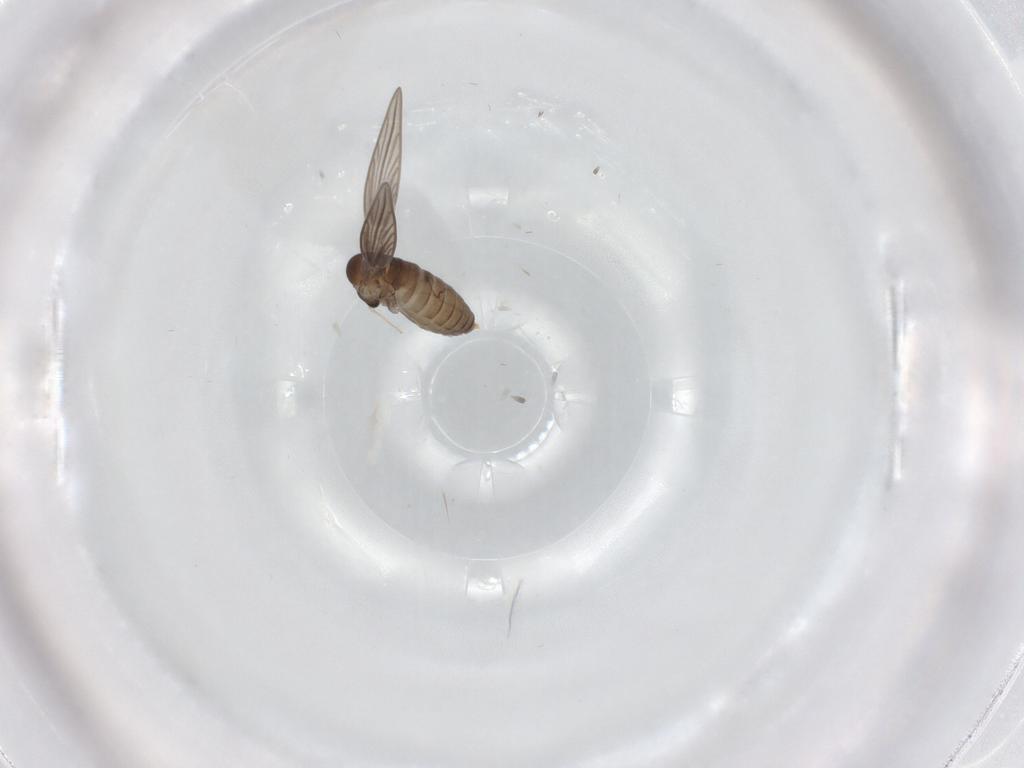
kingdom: Animalia
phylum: Arthropoda
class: Insecta
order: Diptera
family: Psychodidae
